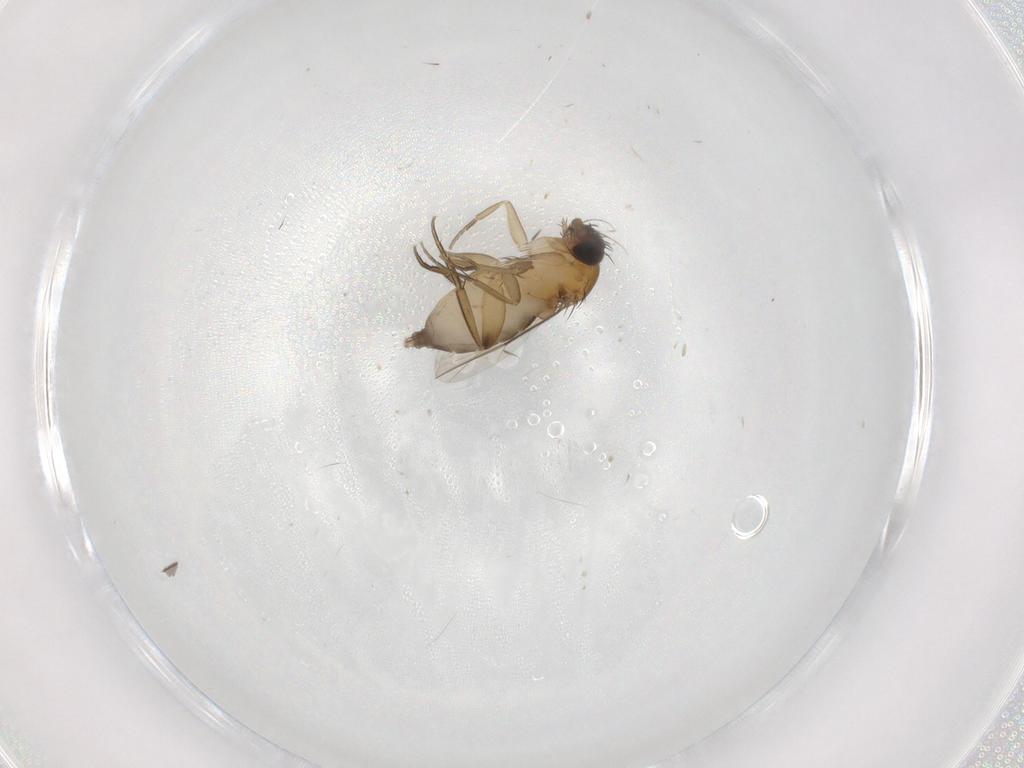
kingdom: Animalia
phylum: Arthropoda
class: Insecta
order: Diptera
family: Phoridae
